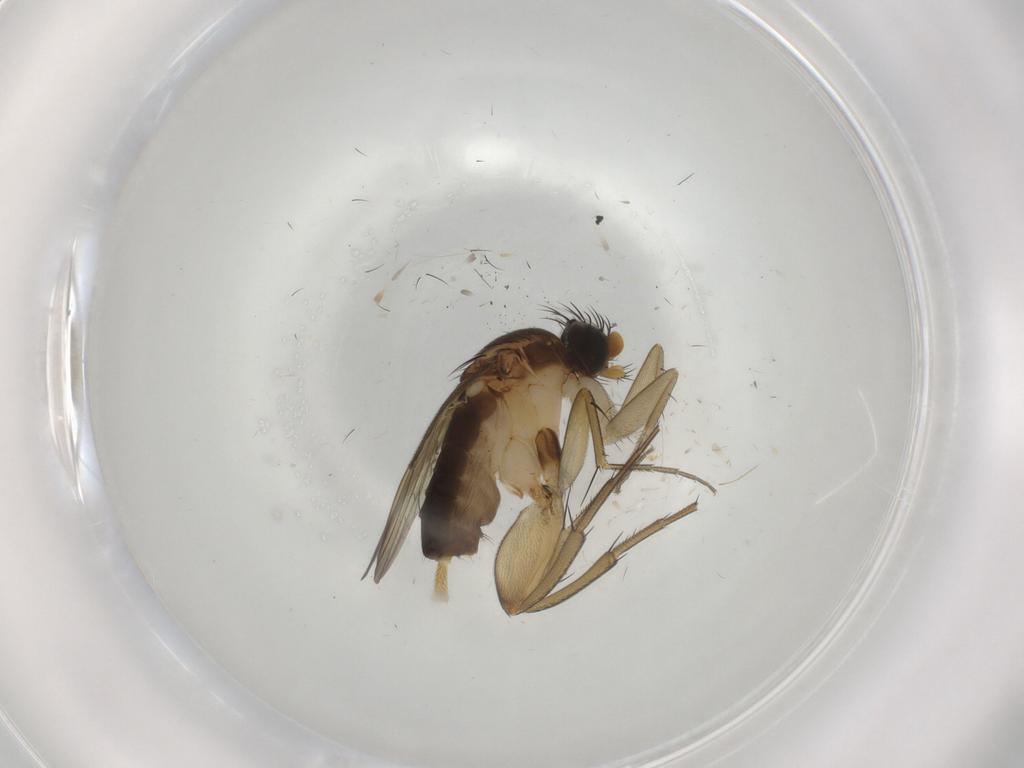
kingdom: Animalia
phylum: Arthropoda
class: Insecta
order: Diptera
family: Phoridae
